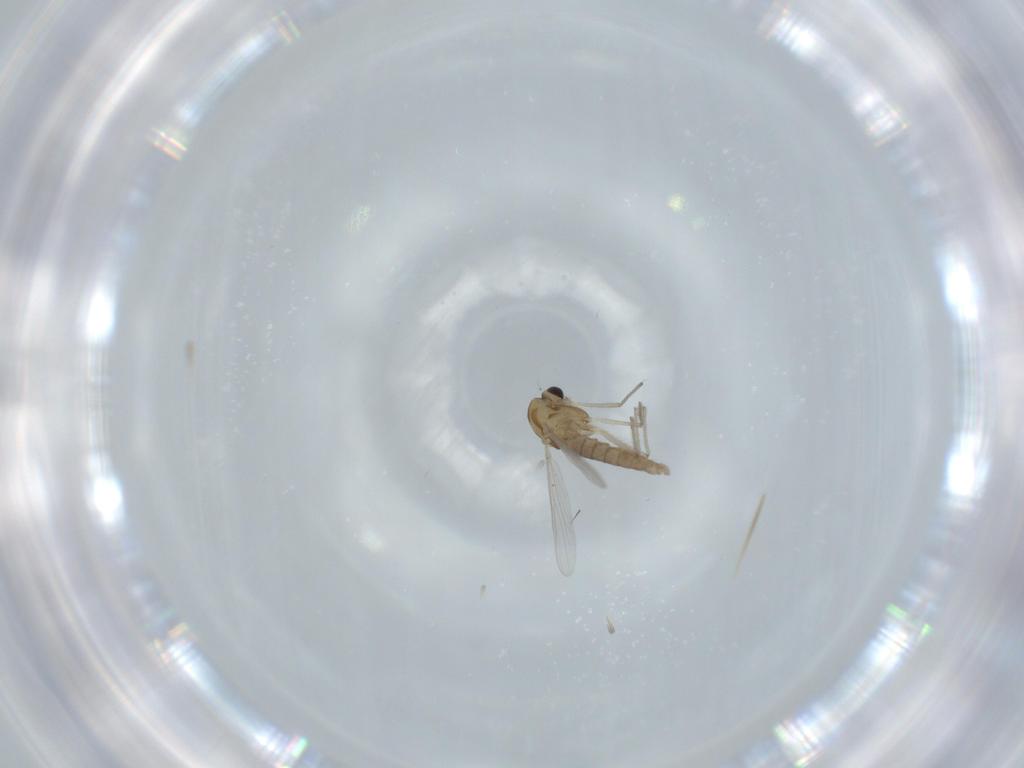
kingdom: Animalia
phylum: Arthropoda
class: Insecta
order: Diptera
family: Chironomidae
